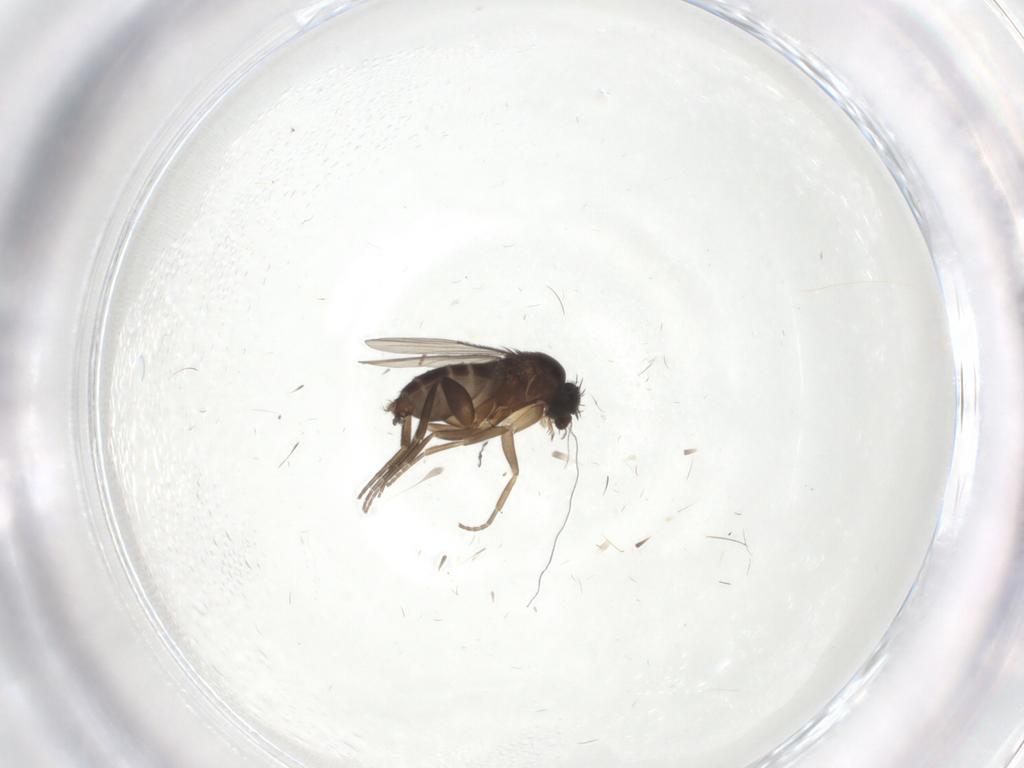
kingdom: Animalia
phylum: Arthropoda
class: Insecta
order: Diptera
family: Phoridae
